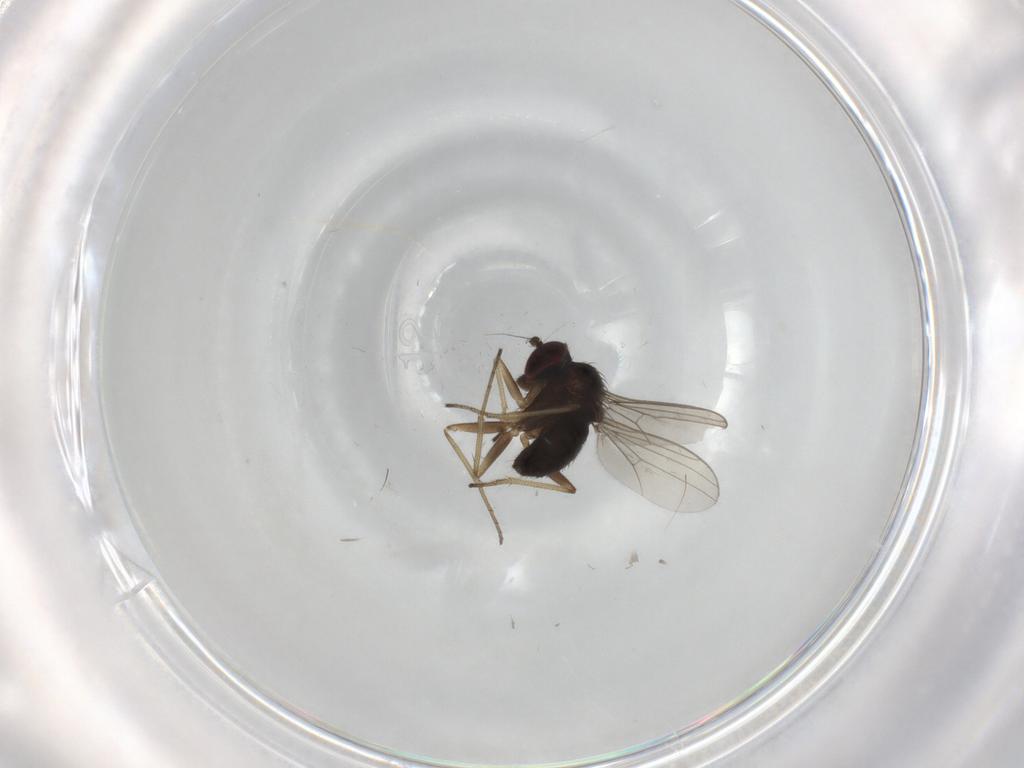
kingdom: Animalia
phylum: Arthropoda
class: Insecta
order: Diptera
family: Dolichopodidae
